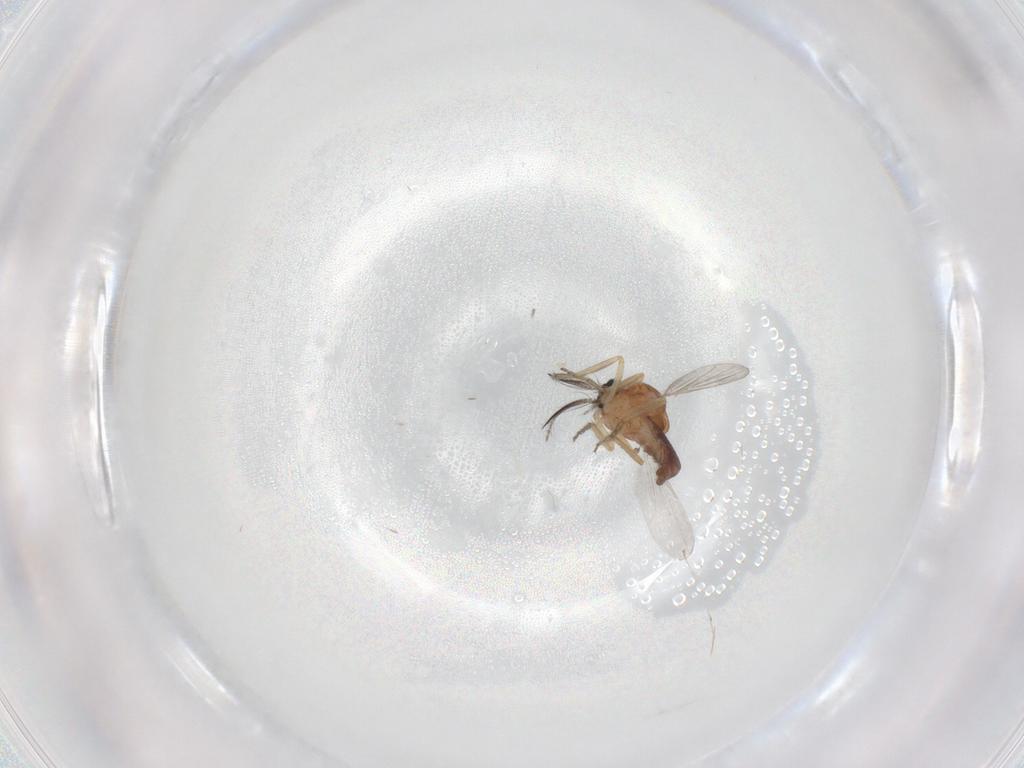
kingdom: Animalia
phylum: Arthropoda
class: Insecta
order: Diptera
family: Ceratopogonidae
